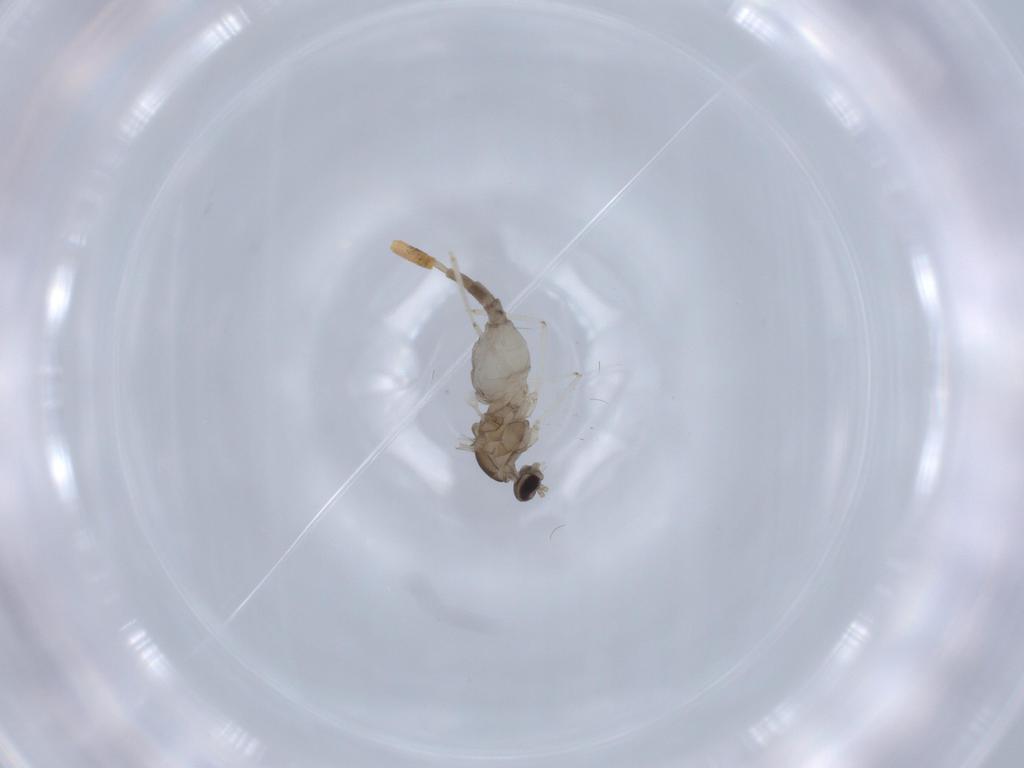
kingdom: Animalia
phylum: Arthropoda
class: Insecta
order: Diptera
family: Cecidomyiidae
